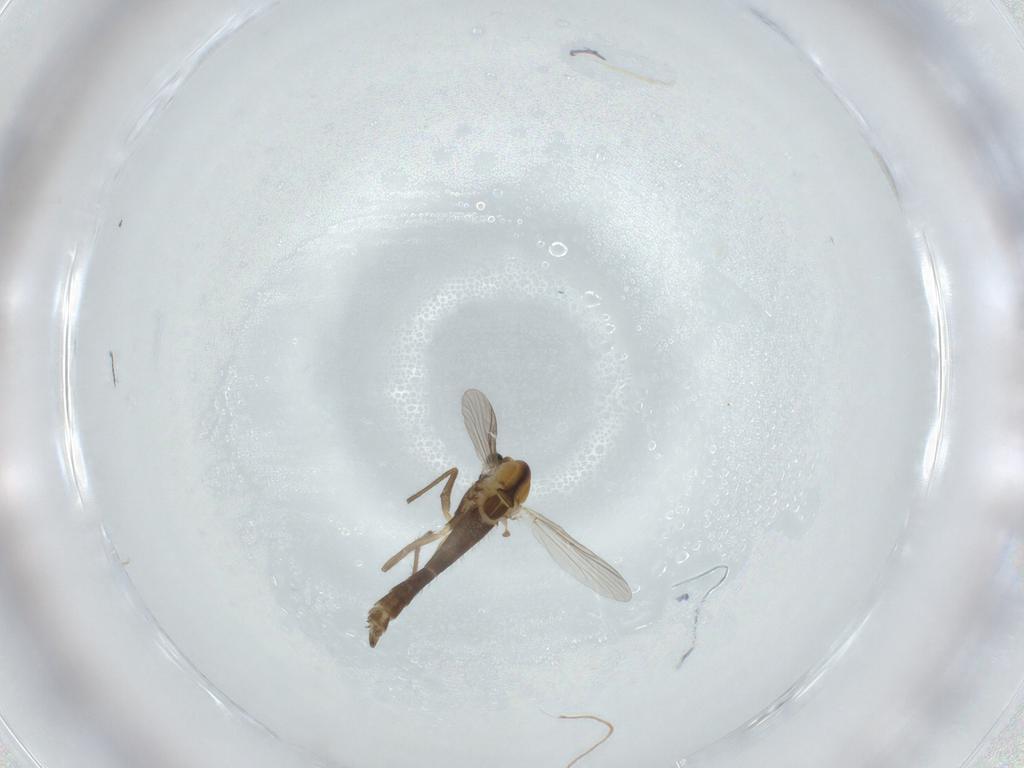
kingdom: Animalia
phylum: Arthropoda
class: Insecta
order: Diptera
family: Chironomidae
